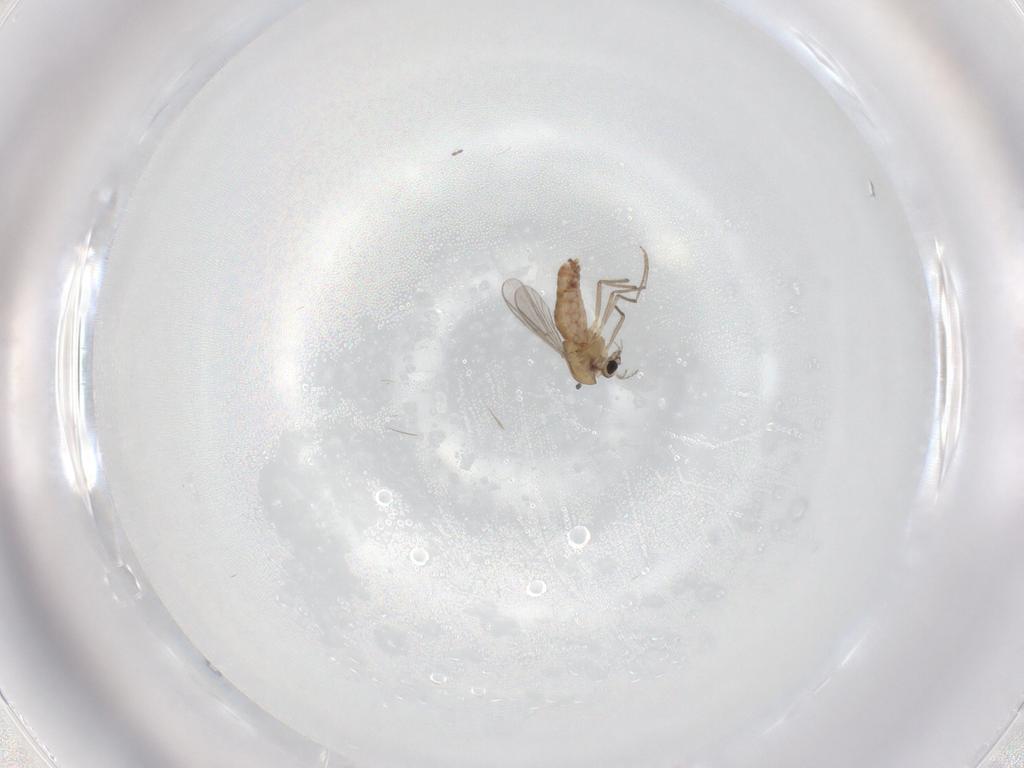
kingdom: Animalia
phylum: Arthropoda
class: Insecta
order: Diptera
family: Chironomidae
